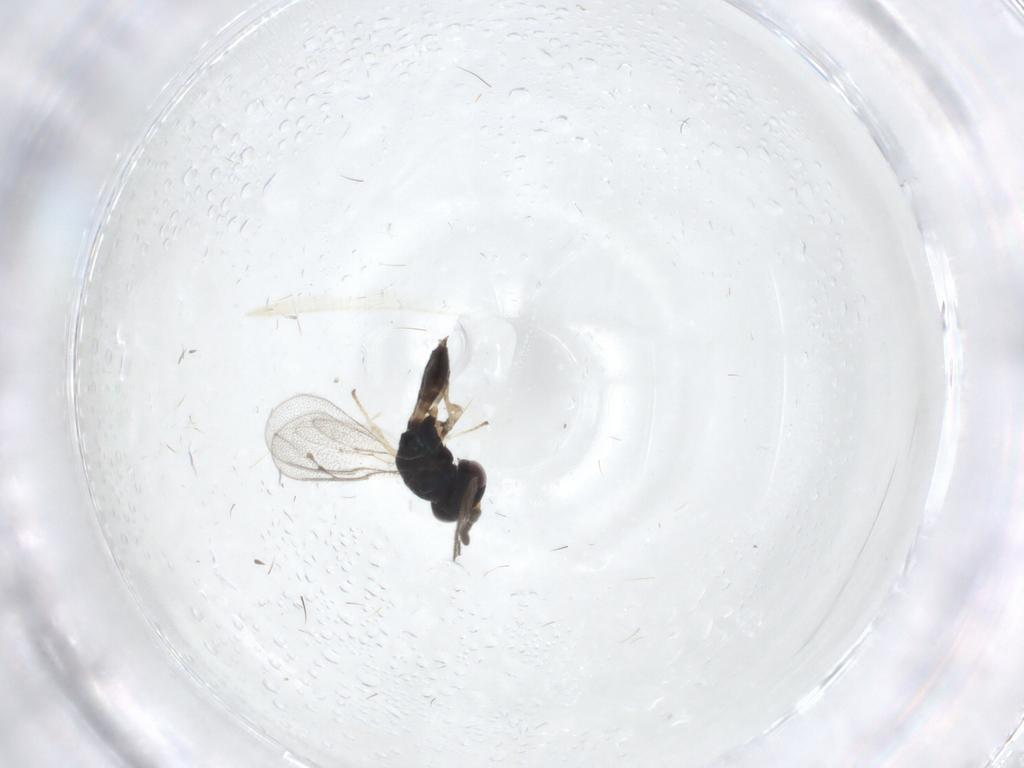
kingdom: Animalia
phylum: Arthropoda
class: Insecta
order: Hymenoptera
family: Pteromalidae
